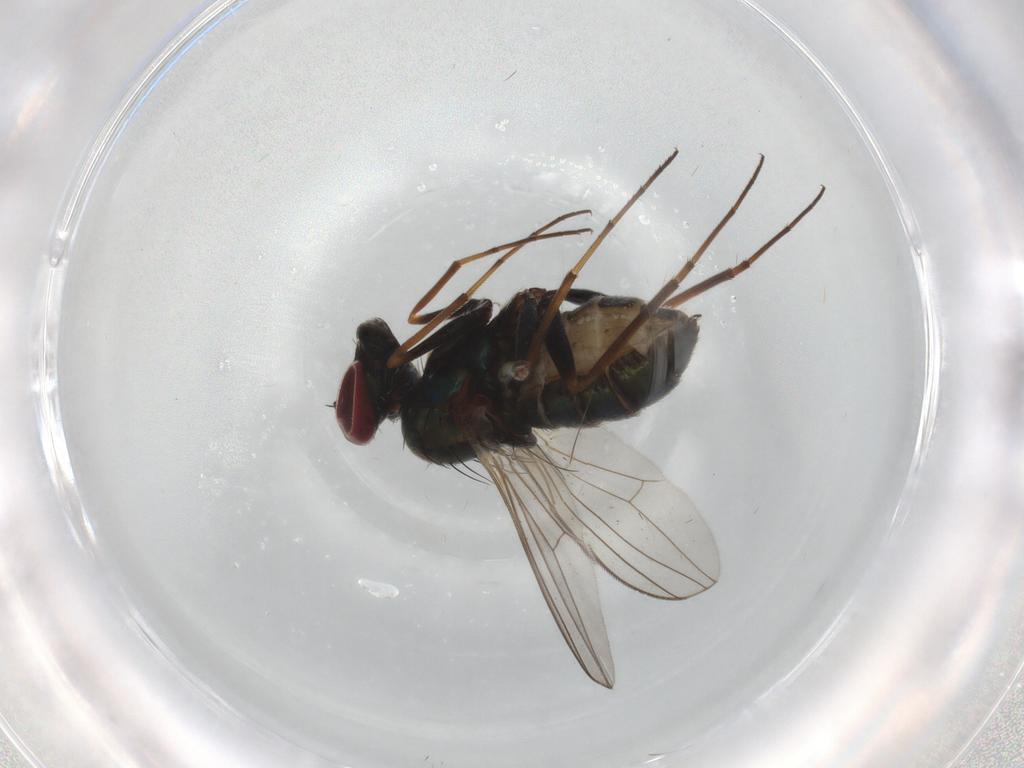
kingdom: Animalia
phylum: Arthropoda
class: Insecta
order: Diptera
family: Dolichopodidae
